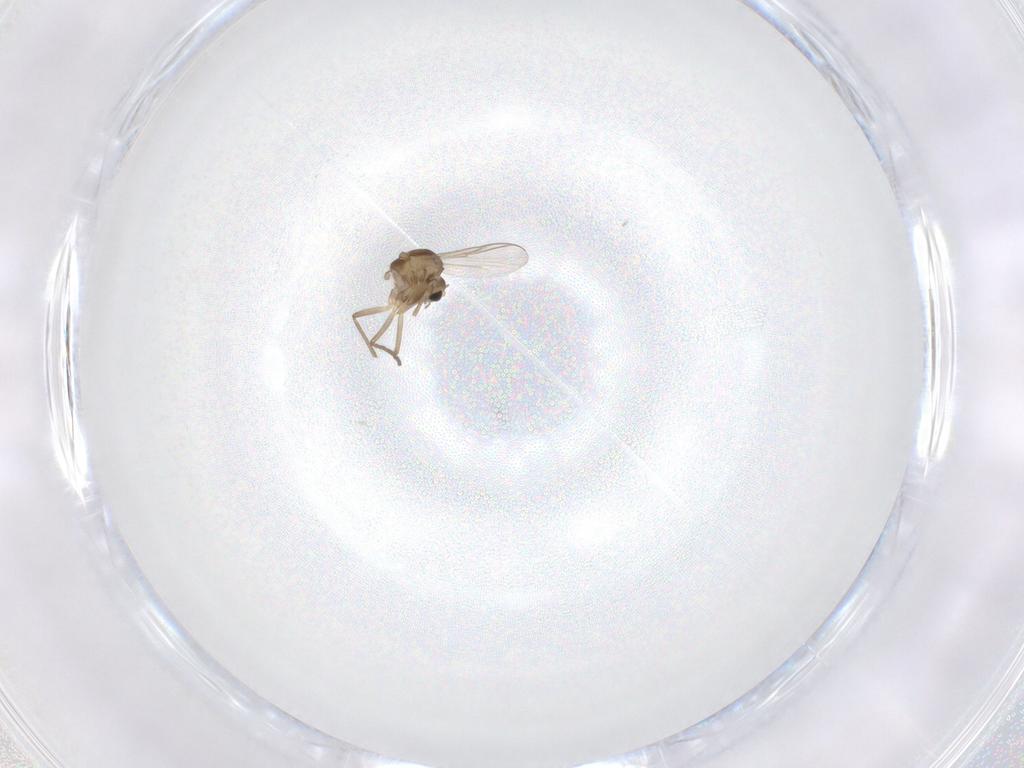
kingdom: Animalia
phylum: Arthropoda
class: Insecta
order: Diptera
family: Chironomidae
